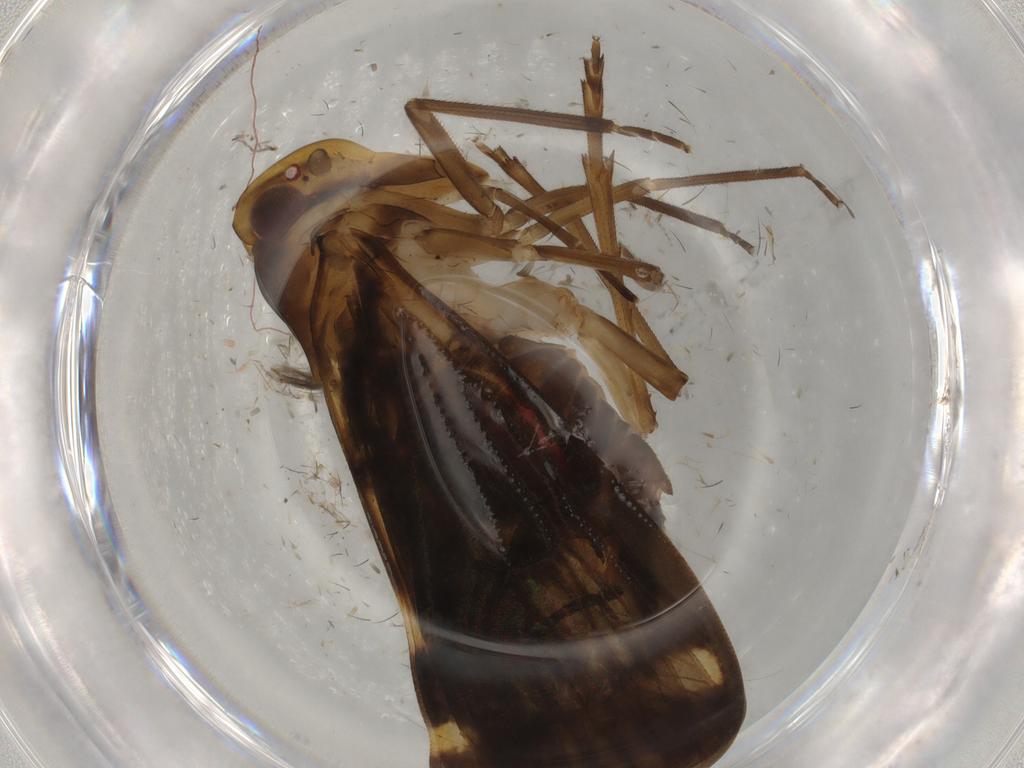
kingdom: Animalia
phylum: Arthropoda
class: Insecta
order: Hemiptera
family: Cixiidae
